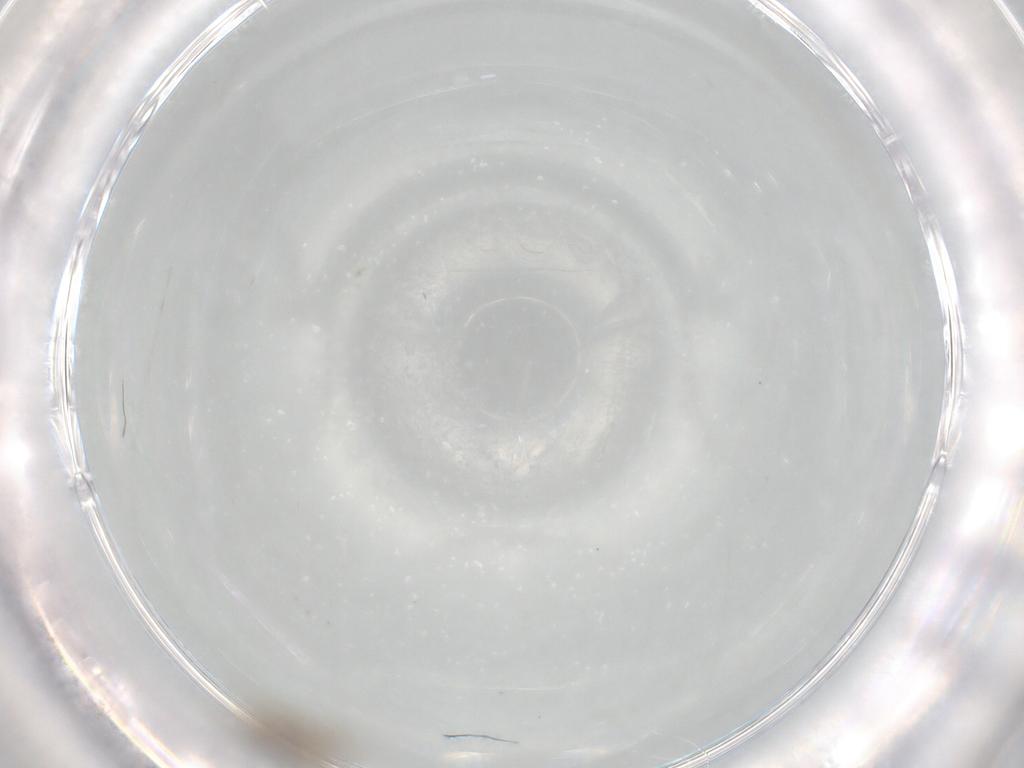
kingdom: Animalia
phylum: Arthropoda
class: Insecta
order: Diptera
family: Chironomidae
